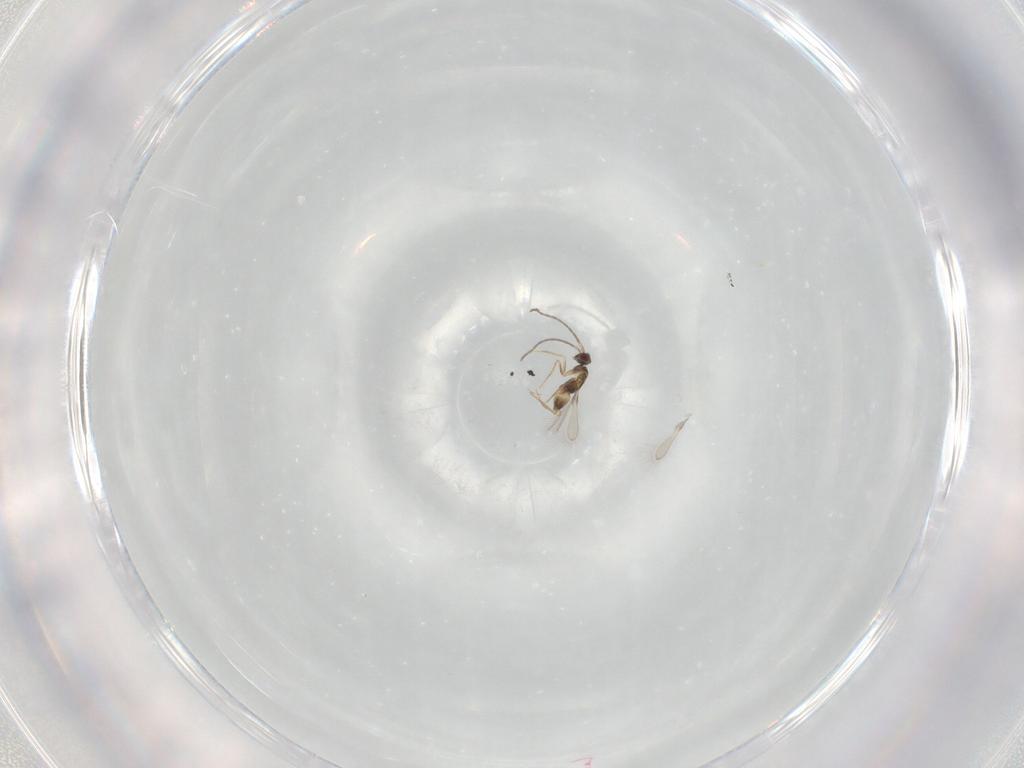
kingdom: Animalia
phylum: Arthropoda
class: Insecta
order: Hymenoptera
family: Mymaridae
